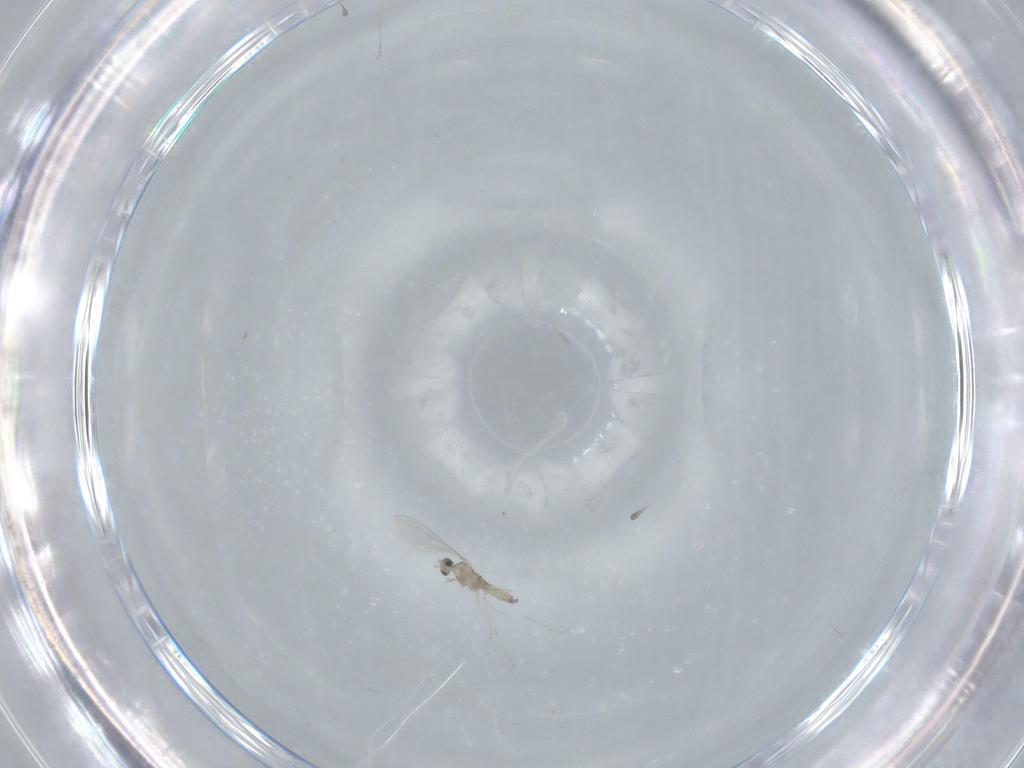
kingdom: Animalia
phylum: Arthropoda
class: Insecta
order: Diptera
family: Cecidomyiidae
